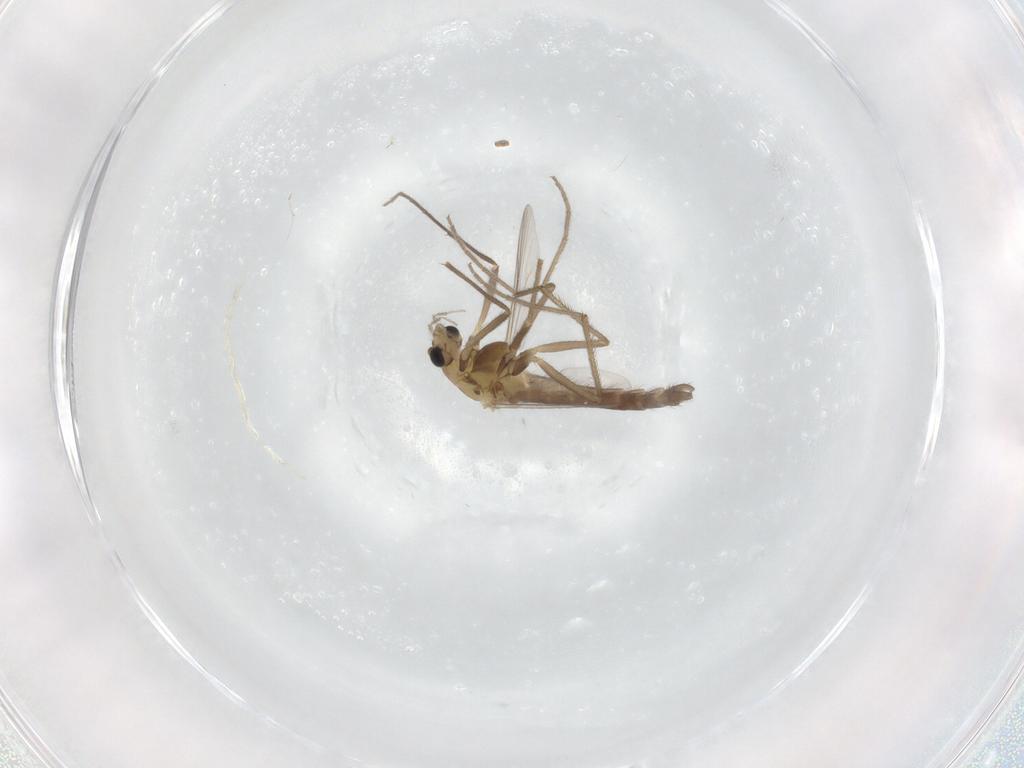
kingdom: Animalia
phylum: Arthropoda
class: Insecta
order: Diptera
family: Chironomidae
